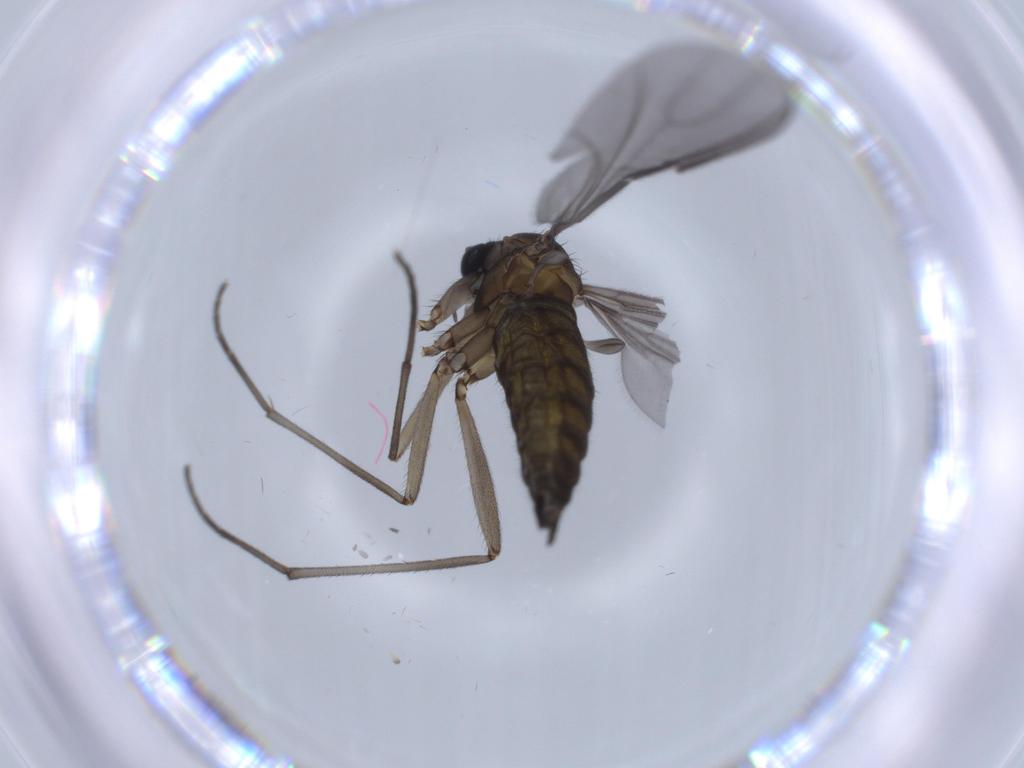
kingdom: Animalia
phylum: Arthropoda
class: Insecta
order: Diptera
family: Sciaridae
